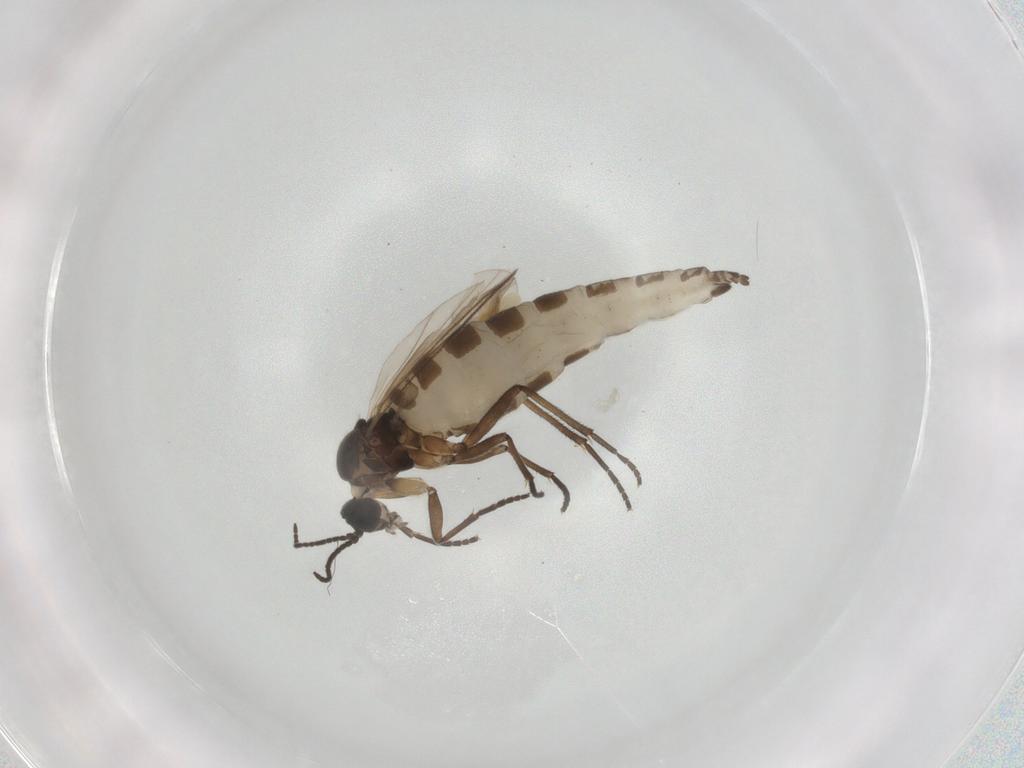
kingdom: Animalia
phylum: Arthropoda
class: Insecta
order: Diptera
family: Sciaridae
